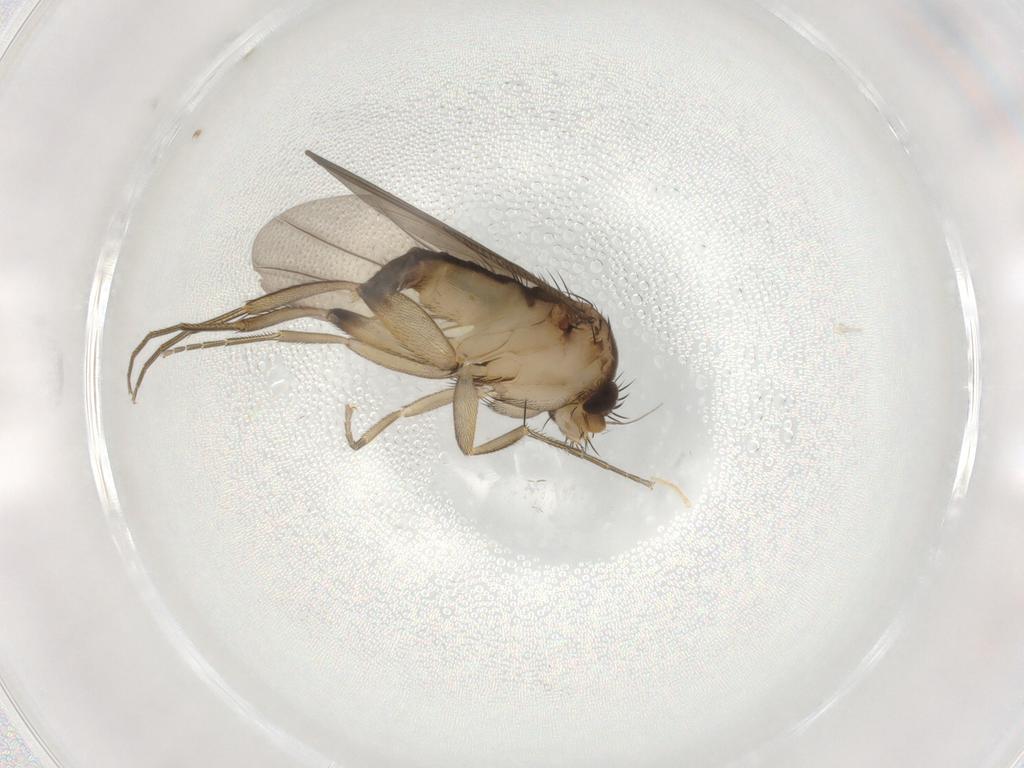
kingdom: Animalia
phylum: Arthropoda
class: Insecta
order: Diptera
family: Phoridae
